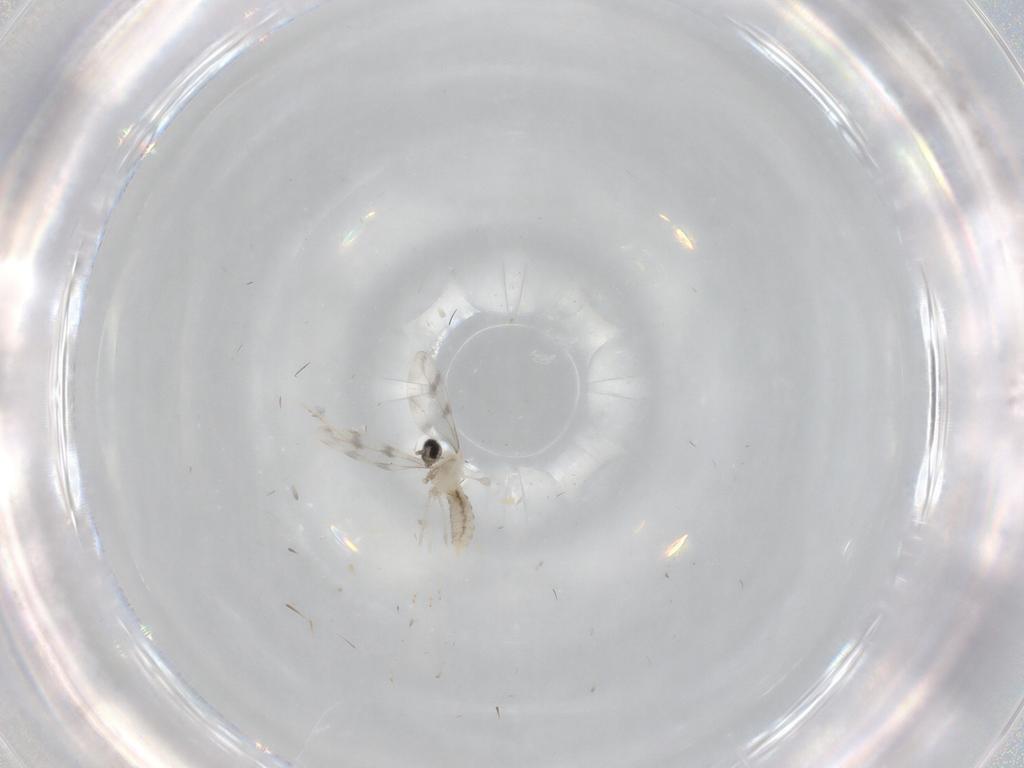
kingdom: Animalia
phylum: Arthropoda
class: Insecta
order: Diptera
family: Cecidomyiidae
